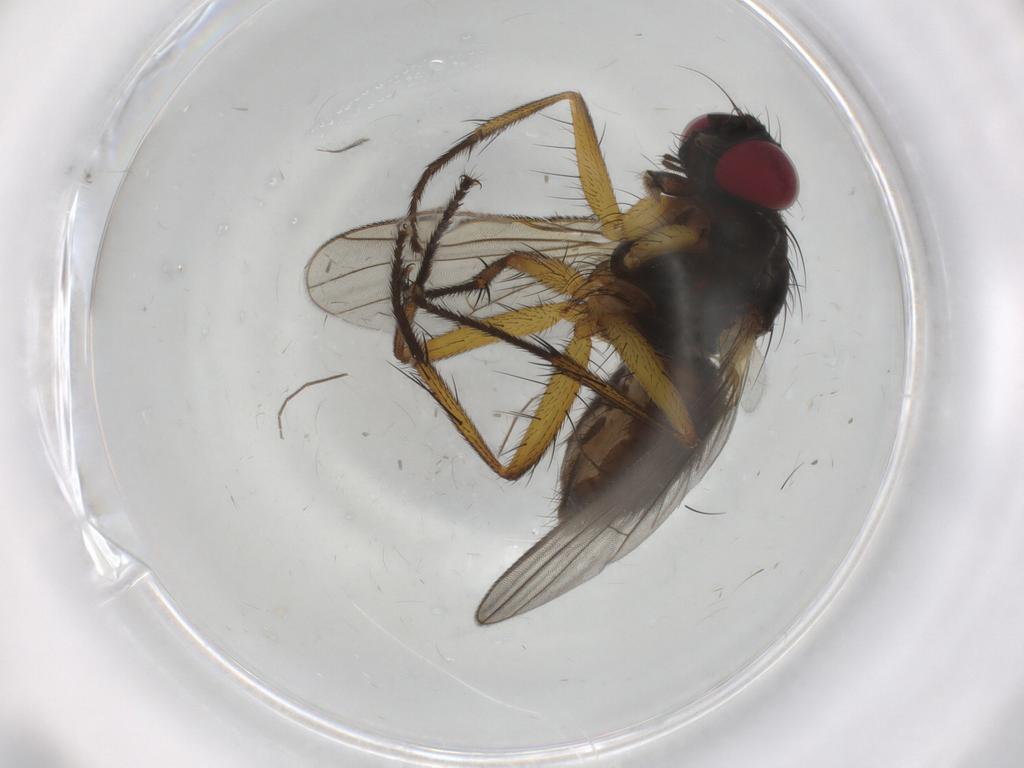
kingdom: Animalia
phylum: Arthropoda
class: Insecta
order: Diptera
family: Muscidae
